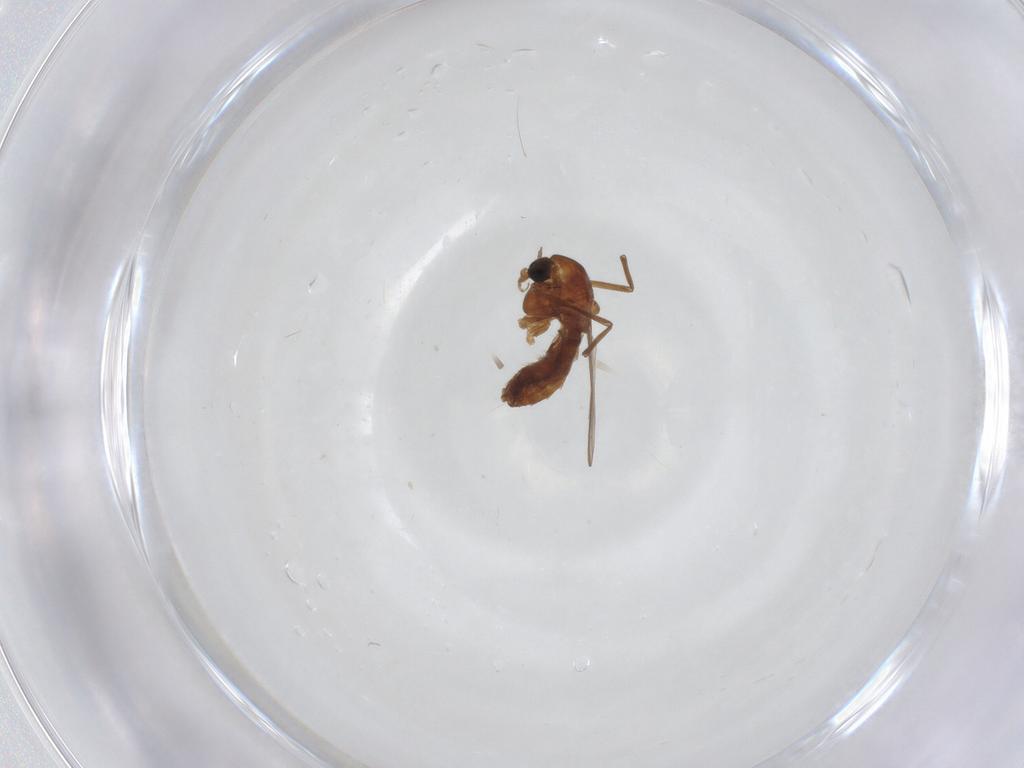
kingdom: Animalia
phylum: Arthropoda
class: Insecta
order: Diptera
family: Chironomidae
